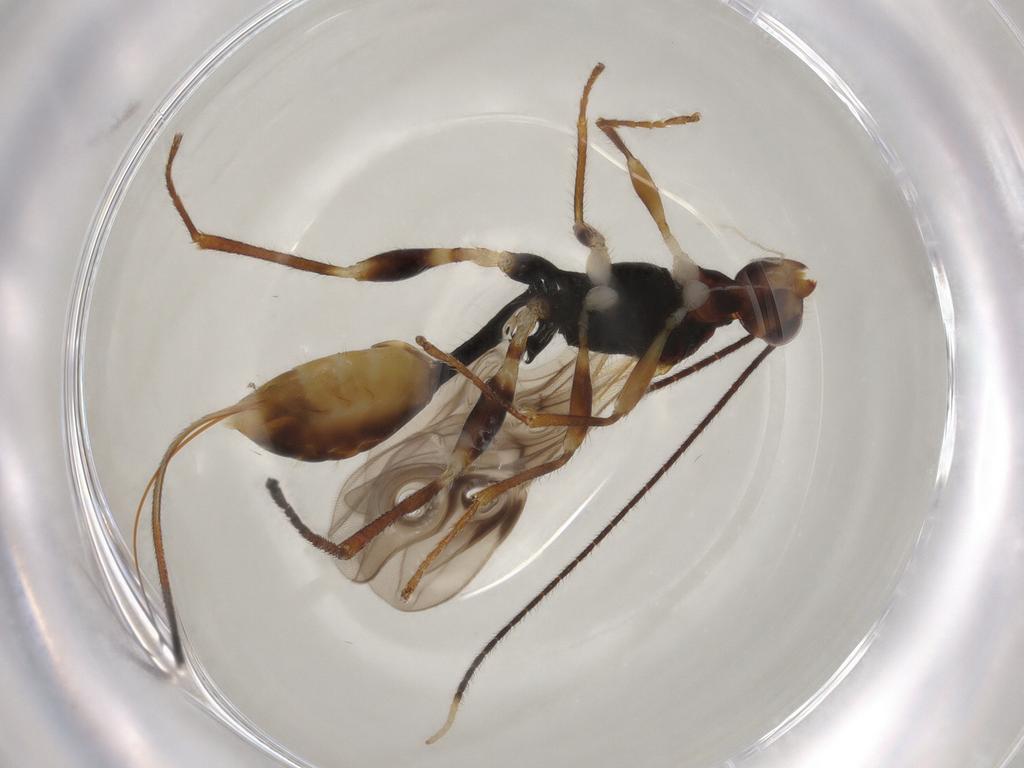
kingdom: Animalia
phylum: Arthropoda
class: Insecta
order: Hymenoptera
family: Braconidae
